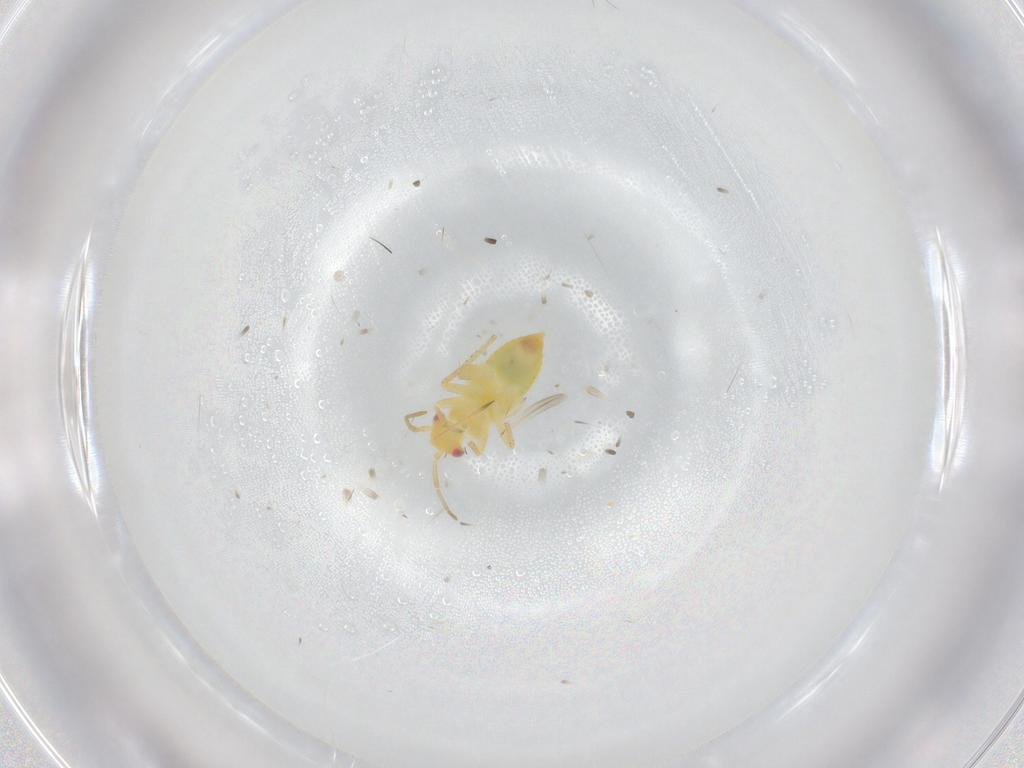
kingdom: Animalia
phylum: Arthropoda
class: Insecta
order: Hemiptera
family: Miridae
